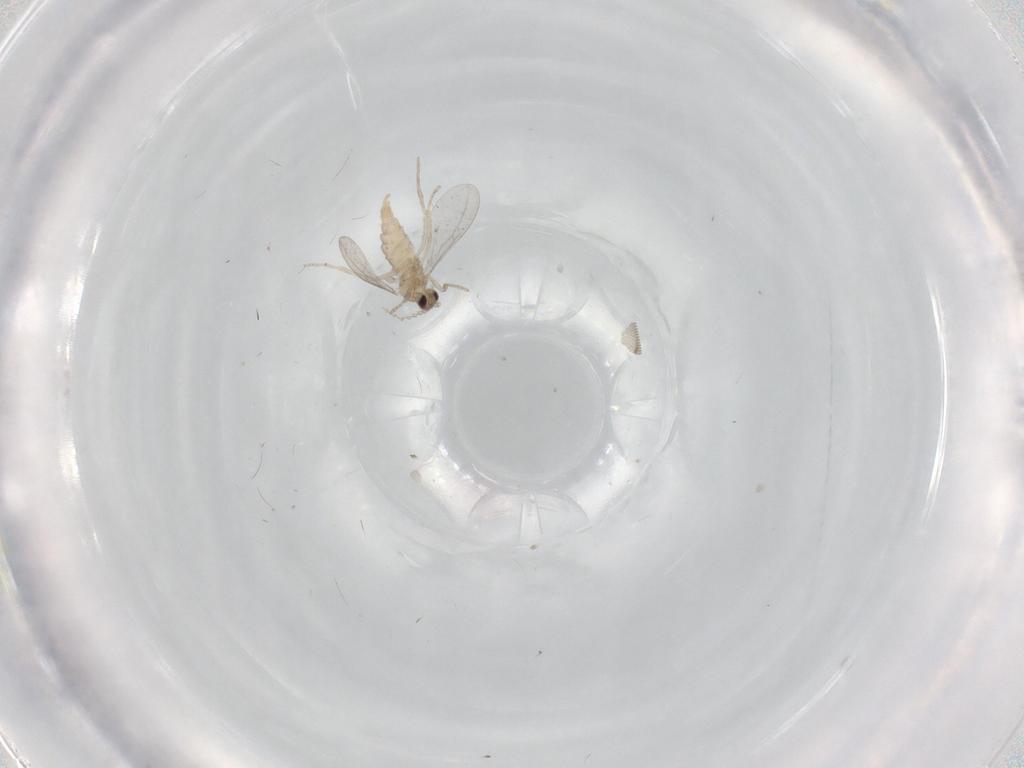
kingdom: Animalia
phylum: Arthropoda
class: Insecta
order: Diptera
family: Sciaridae
